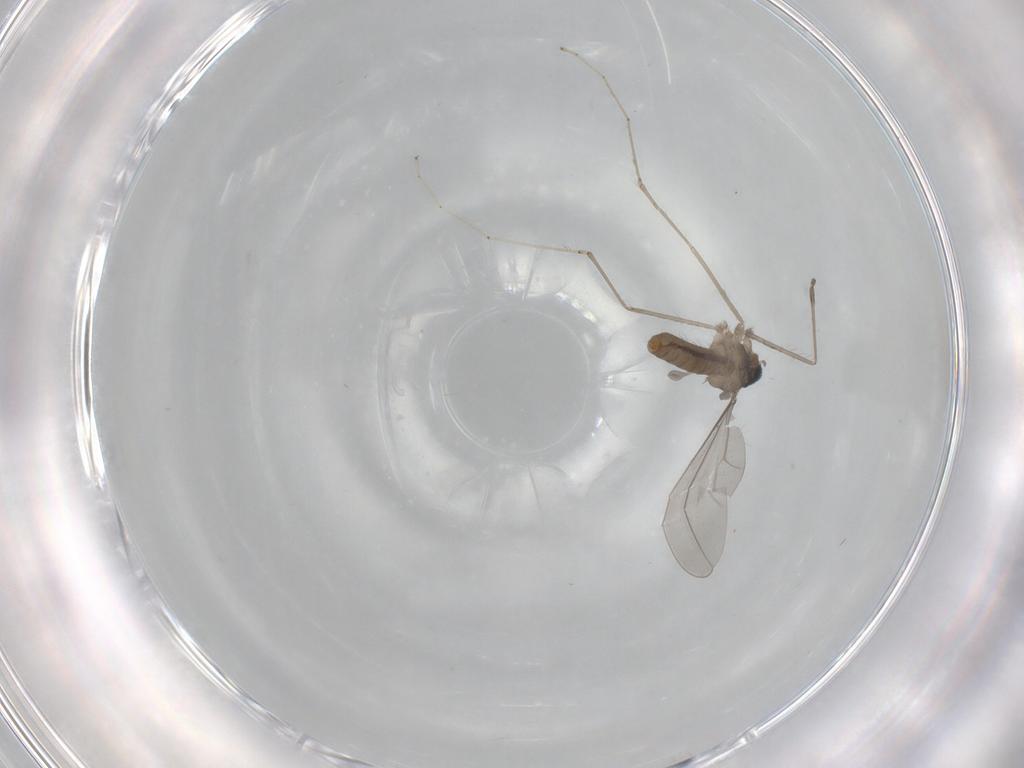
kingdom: Animalia
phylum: Arthropoda
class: Insecta
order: Diptera
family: Cecidomyiidae
